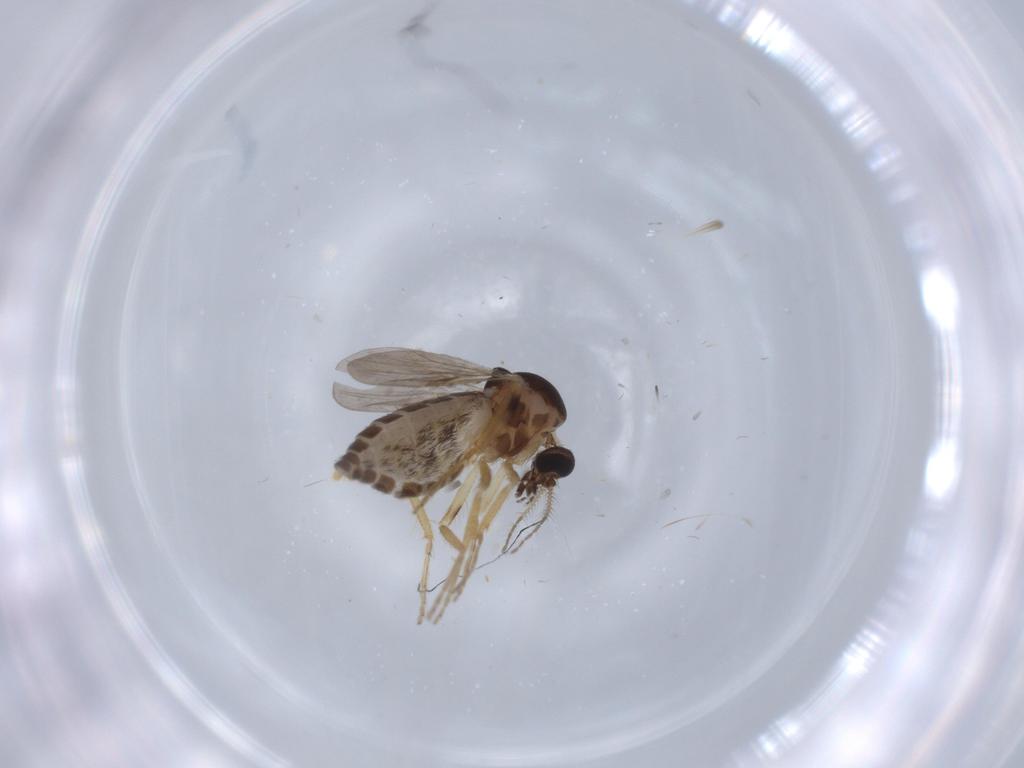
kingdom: Animalia
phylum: Arthropoda
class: Insecta
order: Diptera
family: Ceratopogonidae
